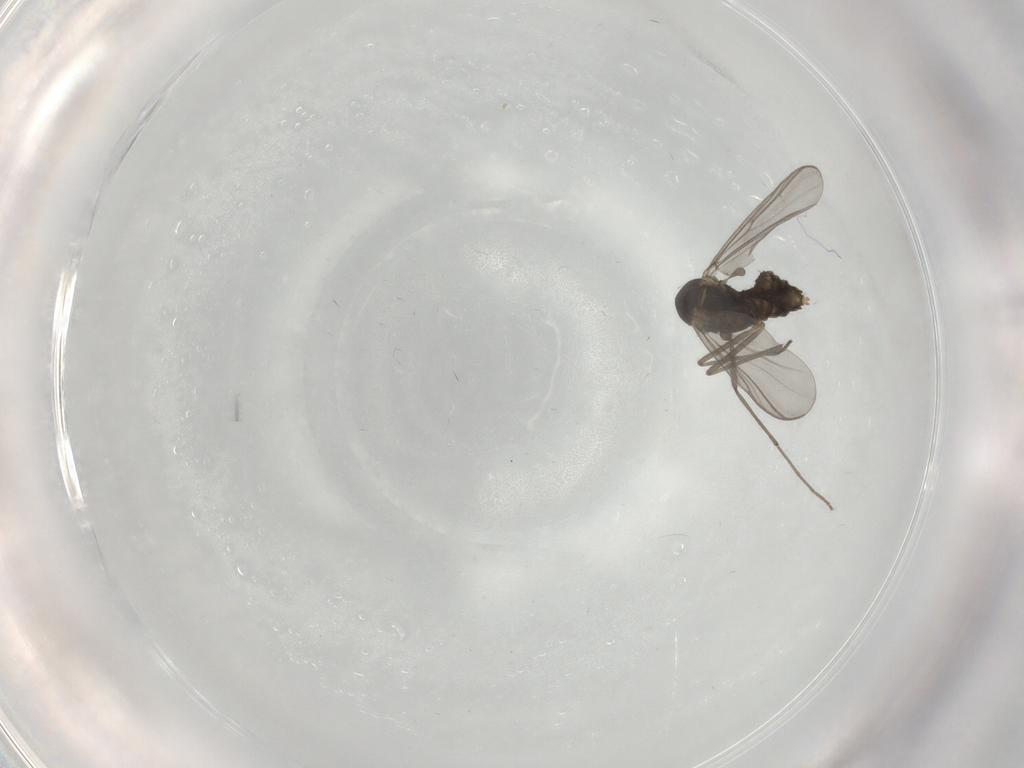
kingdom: Animalia
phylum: Arthropoda
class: Insecta
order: Diptera
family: Chironomidae
